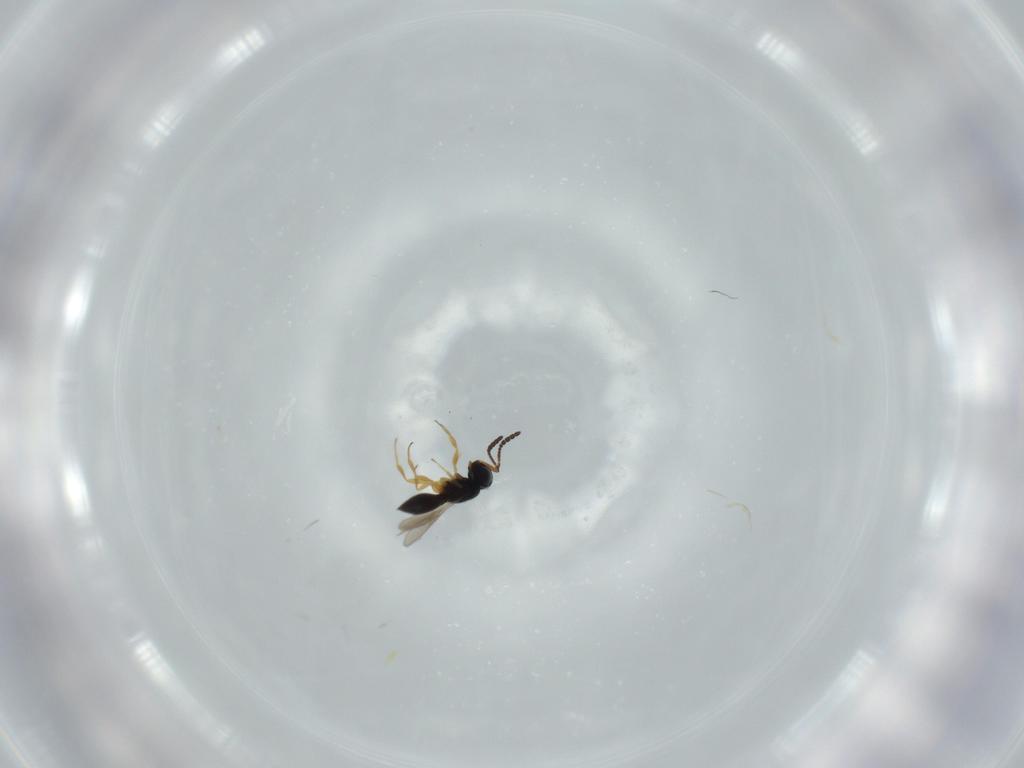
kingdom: Animalia
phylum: Arthropoda
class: Insecta
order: Hymenoptera
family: Scelionidae
